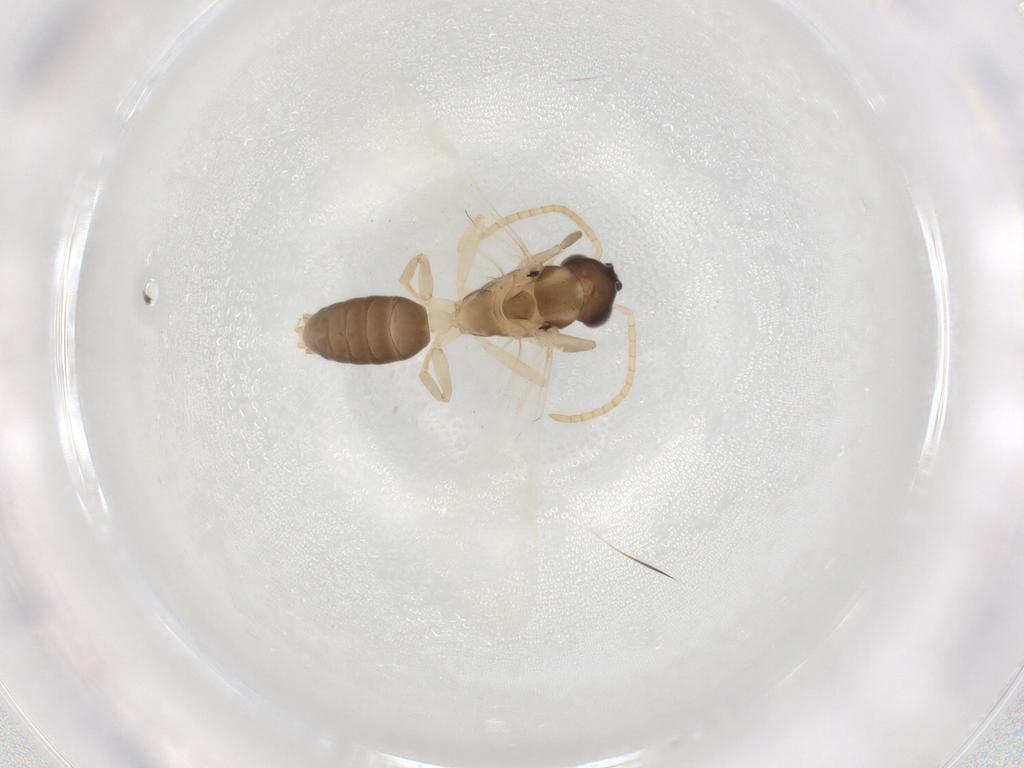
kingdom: Animalia
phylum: Arthropoda
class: Insecta
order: Hymenoptera
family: Formicidae
